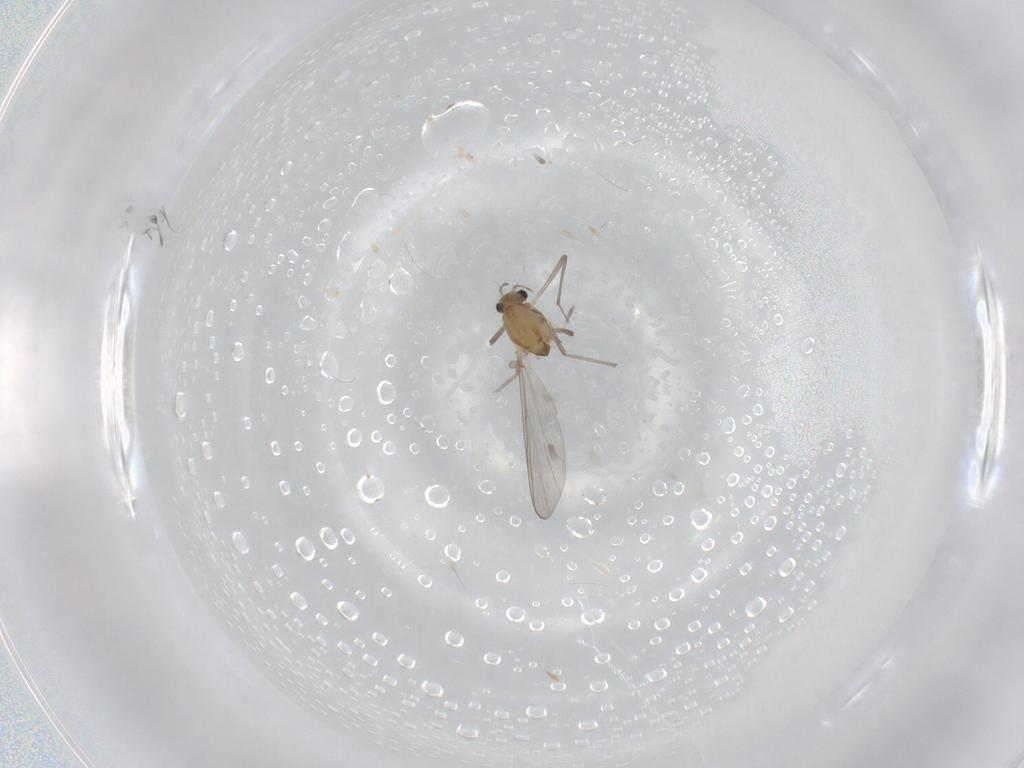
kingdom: Animalia
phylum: Arthropoda
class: Insecta
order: Diptera
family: Chironomidae
